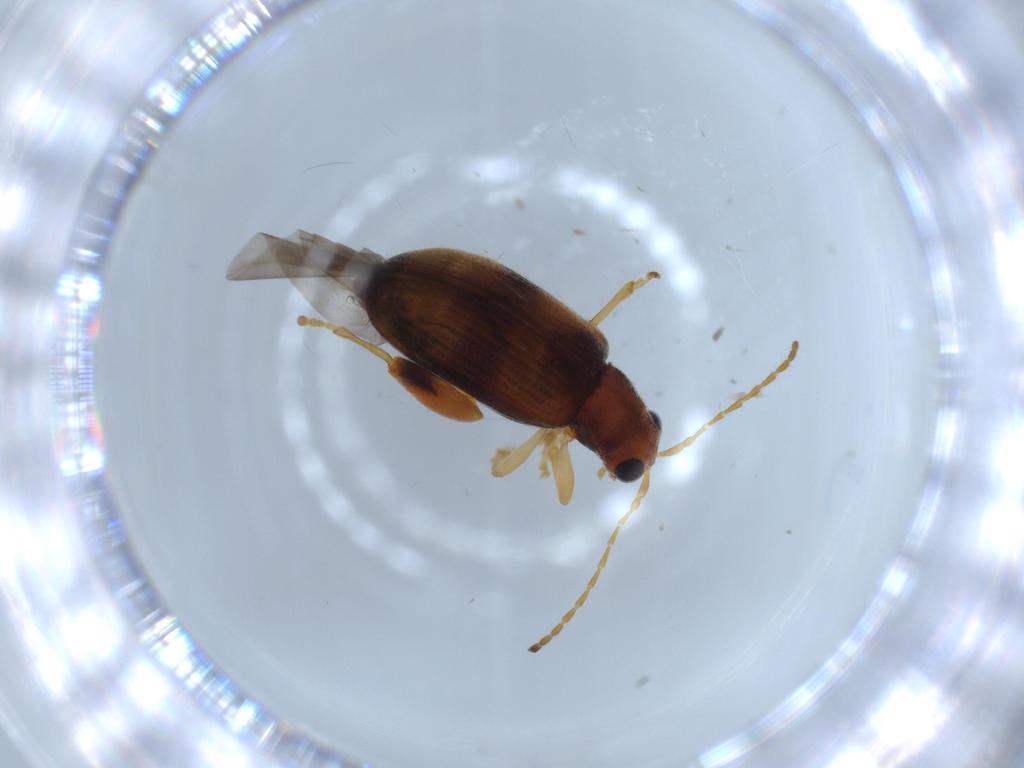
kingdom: Animalia
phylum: Arthropoda
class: Insecta
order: Coleoptera
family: Chrysomelidae
